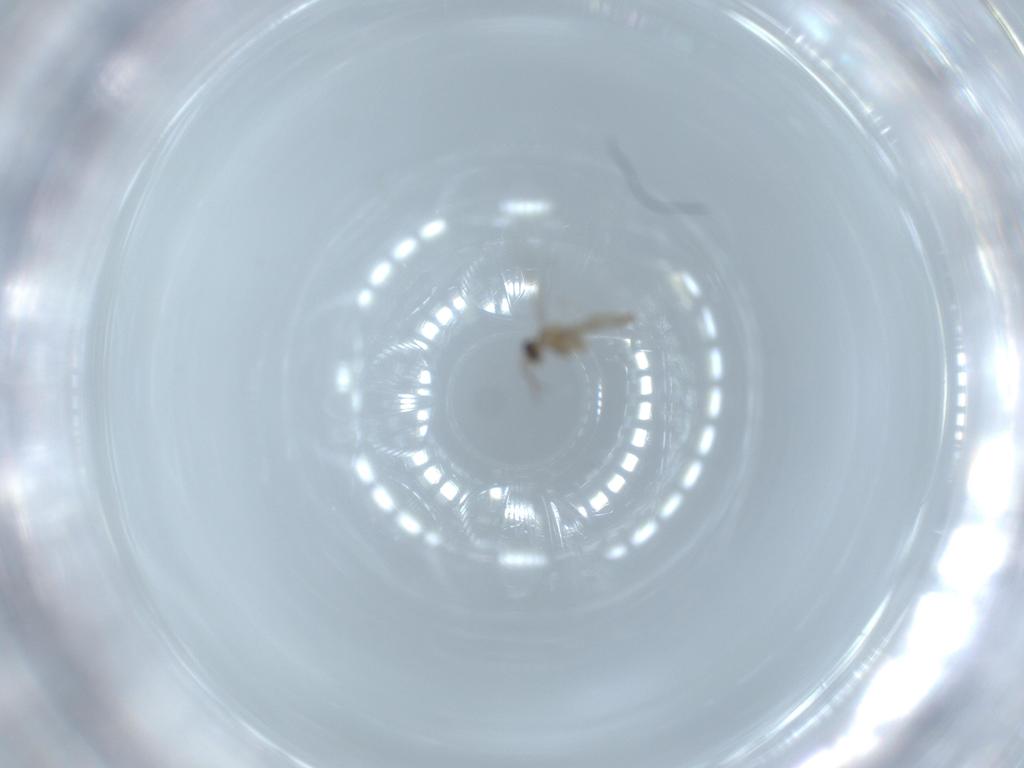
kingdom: Animalia
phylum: Arthropoda
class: Insecta
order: Diptera
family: Cecidomyiidae
